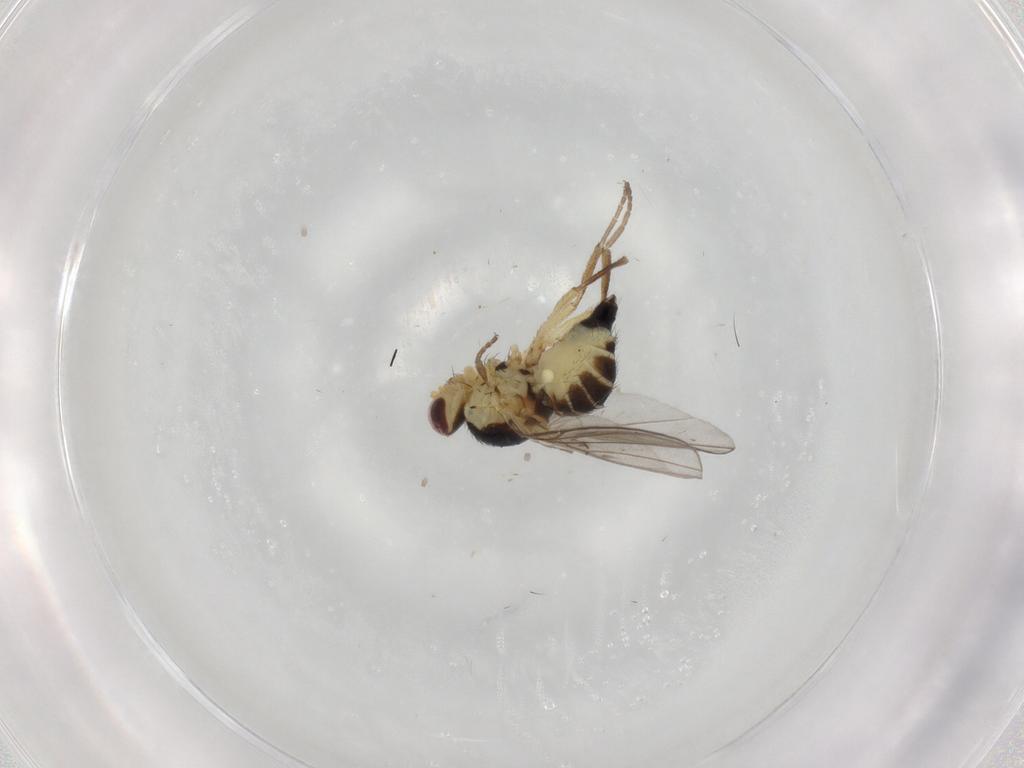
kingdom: Animalia
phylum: Arthropoda
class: Insecta
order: Diptera
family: Agromyzidae
